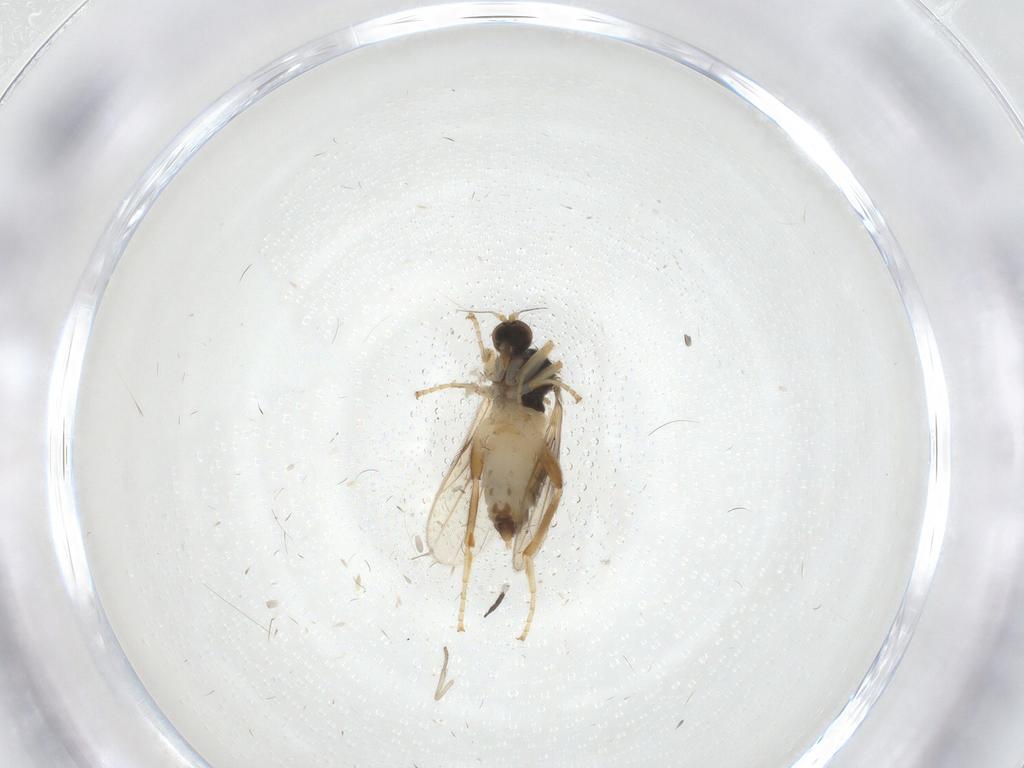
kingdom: Animalia
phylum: Arthropoda
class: Insecta
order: Diptera
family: Hybotidae
